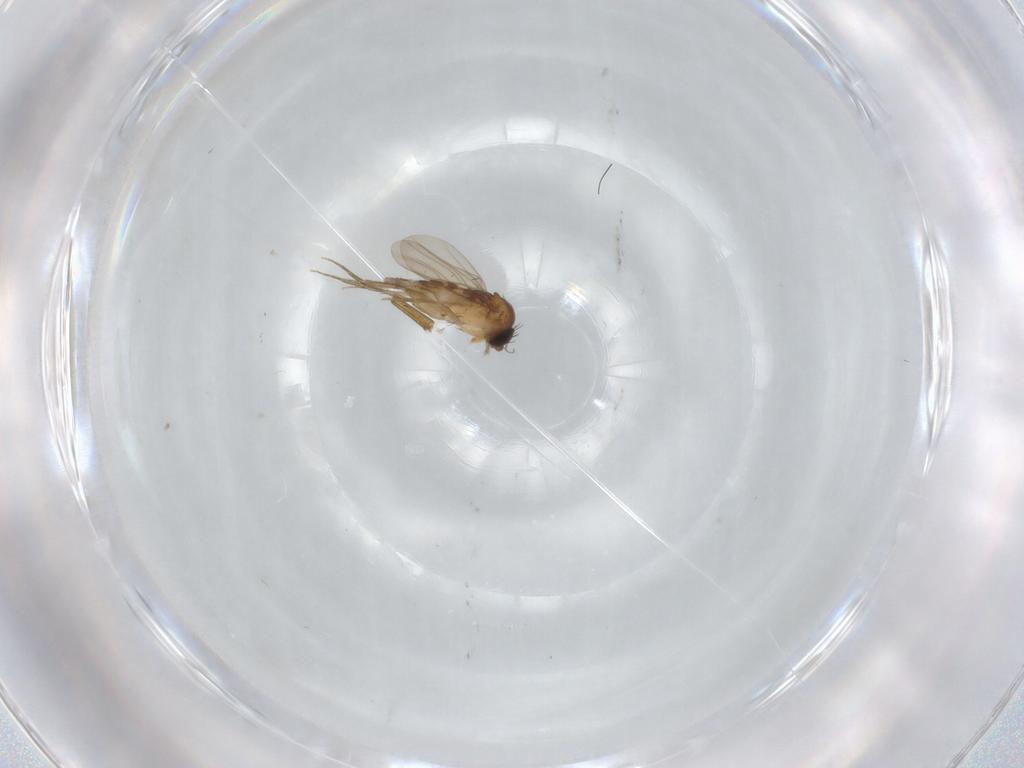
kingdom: Animalia
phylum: Arthropoda
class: Insecta
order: Diptera
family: Phoridae
